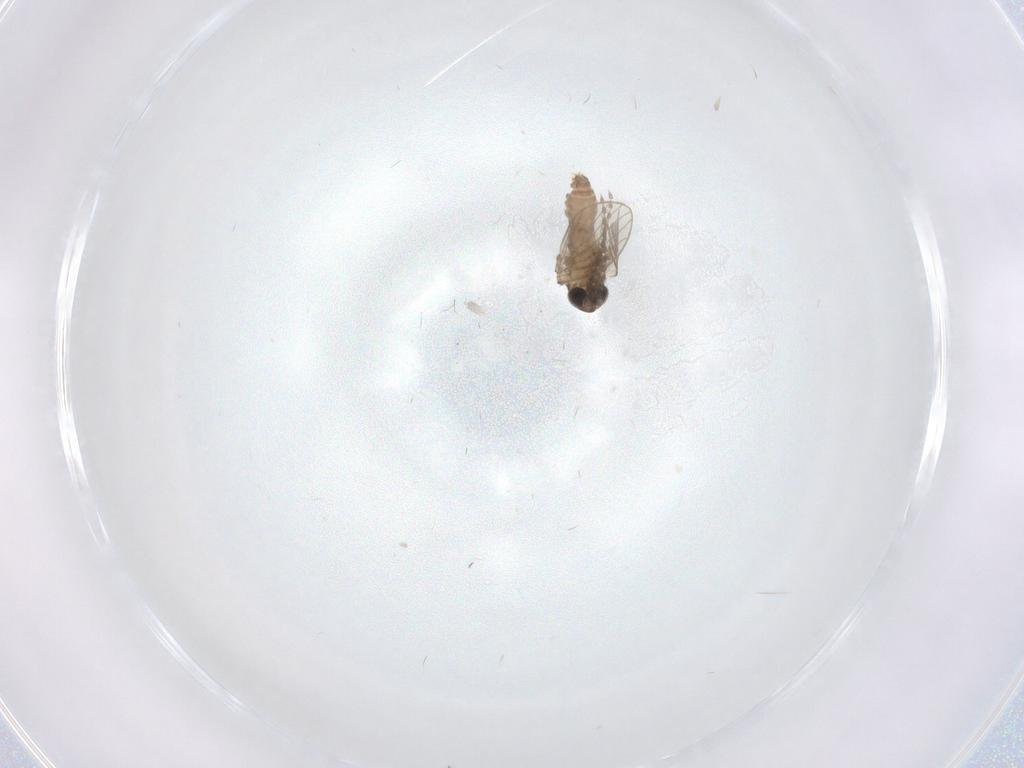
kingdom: Animalia
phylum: Arthropoda
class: Insecta
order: Diptera
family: Psychodidae
